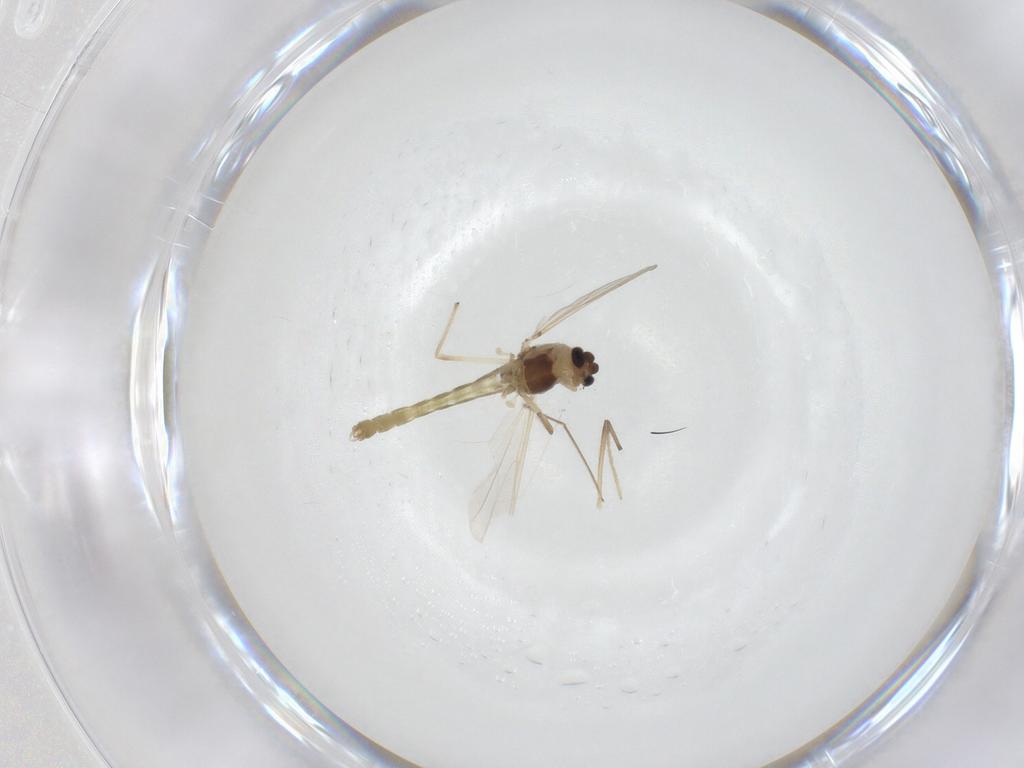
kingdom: Animalia
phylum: Arthropoda
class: Insecta
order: Diptera
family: Chironomidae
